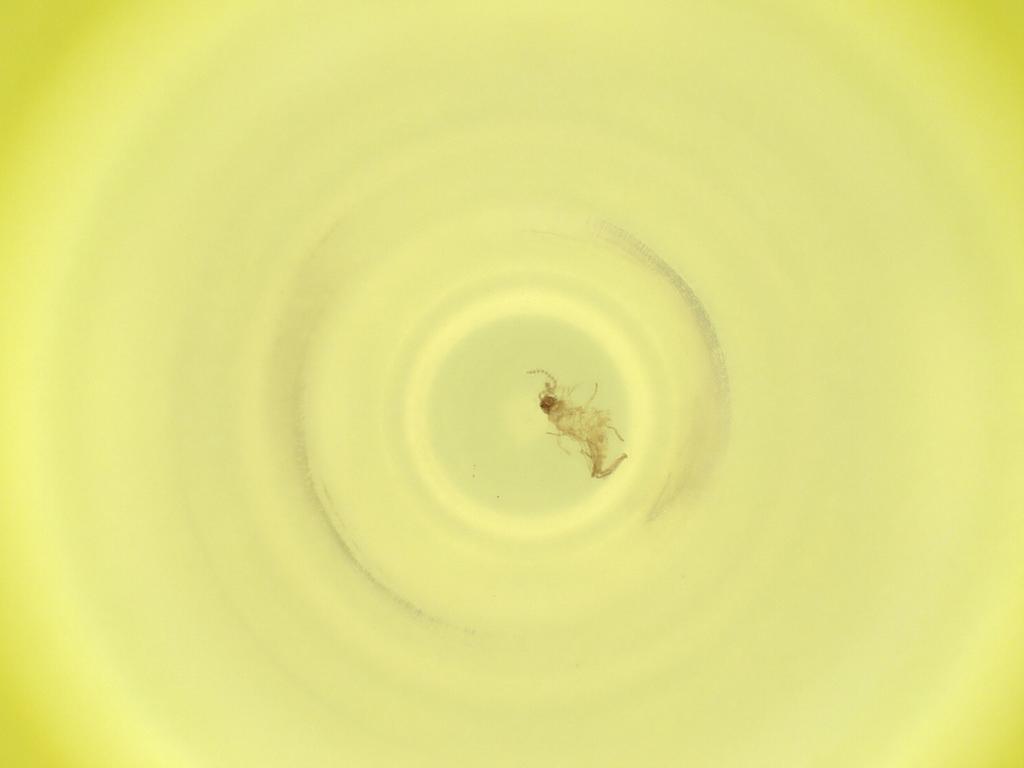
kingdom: Animalia
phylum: Arthropoda
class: Insecta
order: Diptera
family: Cecidomyiidae
